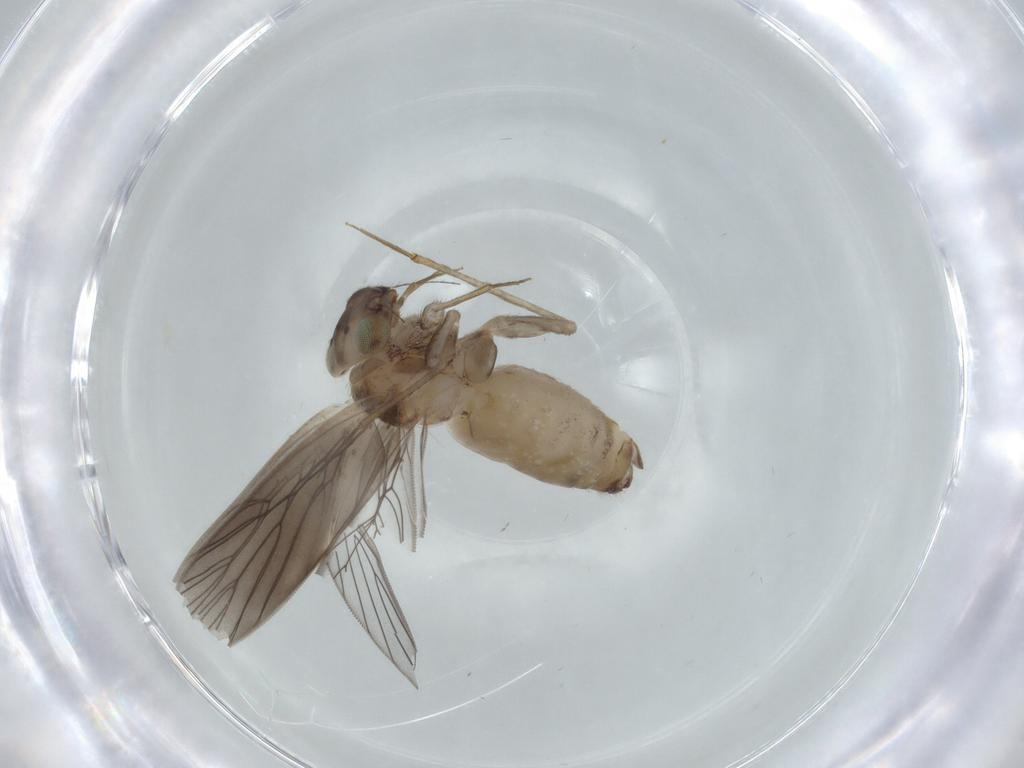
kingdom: Animalia
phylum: Arthropoda
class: Insecta
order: Psocodea
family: Lepidopsocidae
